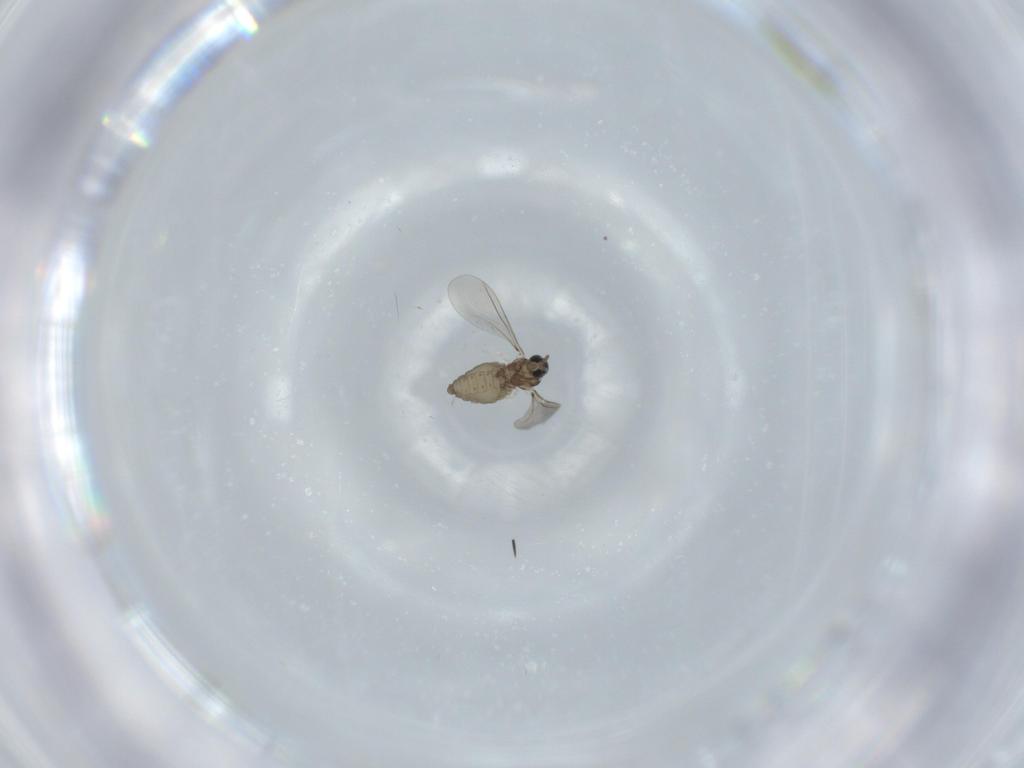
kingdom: Animalia
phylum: Arthropoda
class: Insecta
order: Diptera
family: Cecidomyiidae
